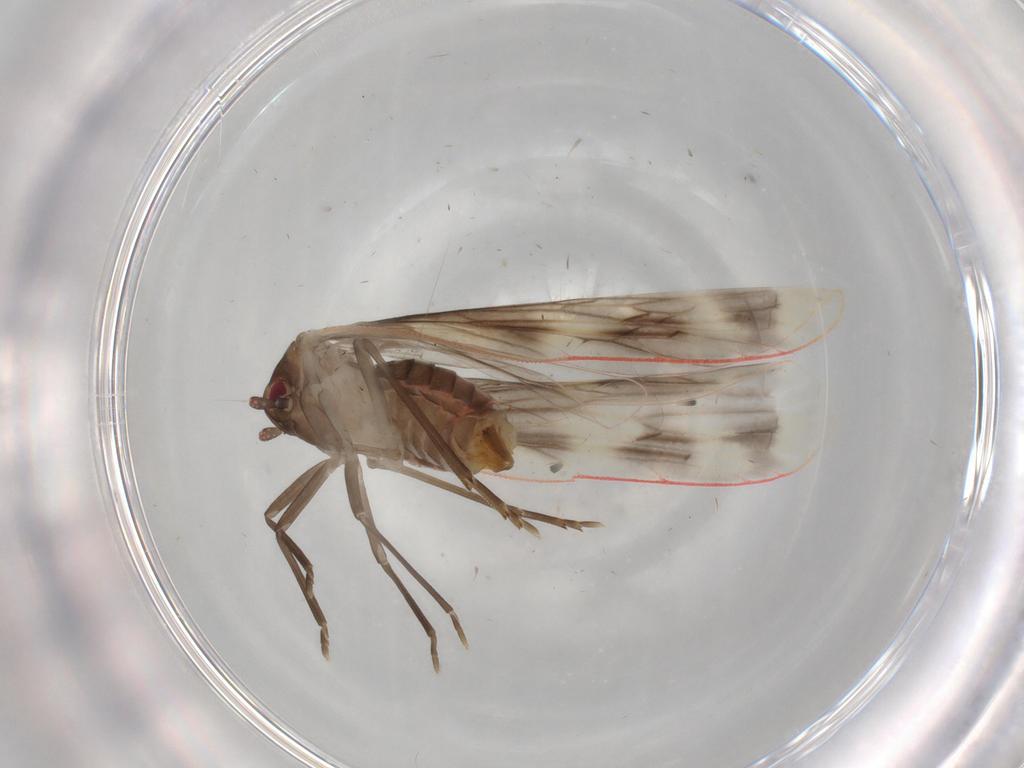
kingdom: Animalia
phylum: Arthropoda
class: Insecta
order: Hemiptera
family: Derbidae
